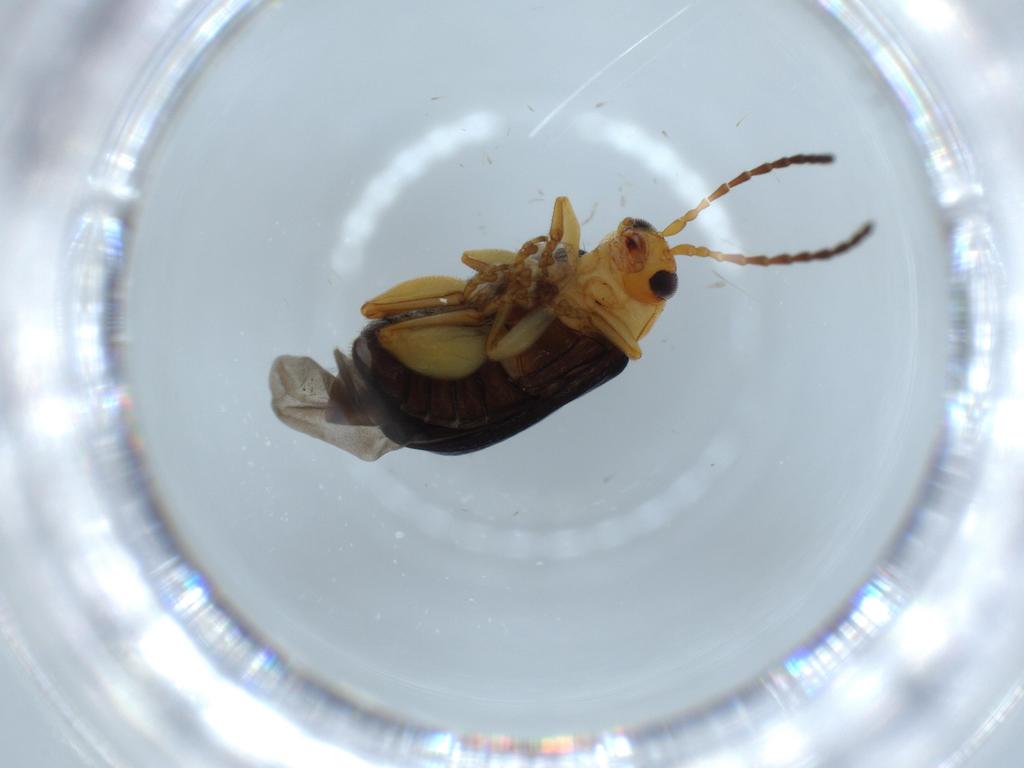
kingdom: Animalia
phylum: Arthropoda
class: Insecta
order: Coleoptera
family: Chrysomelidae
